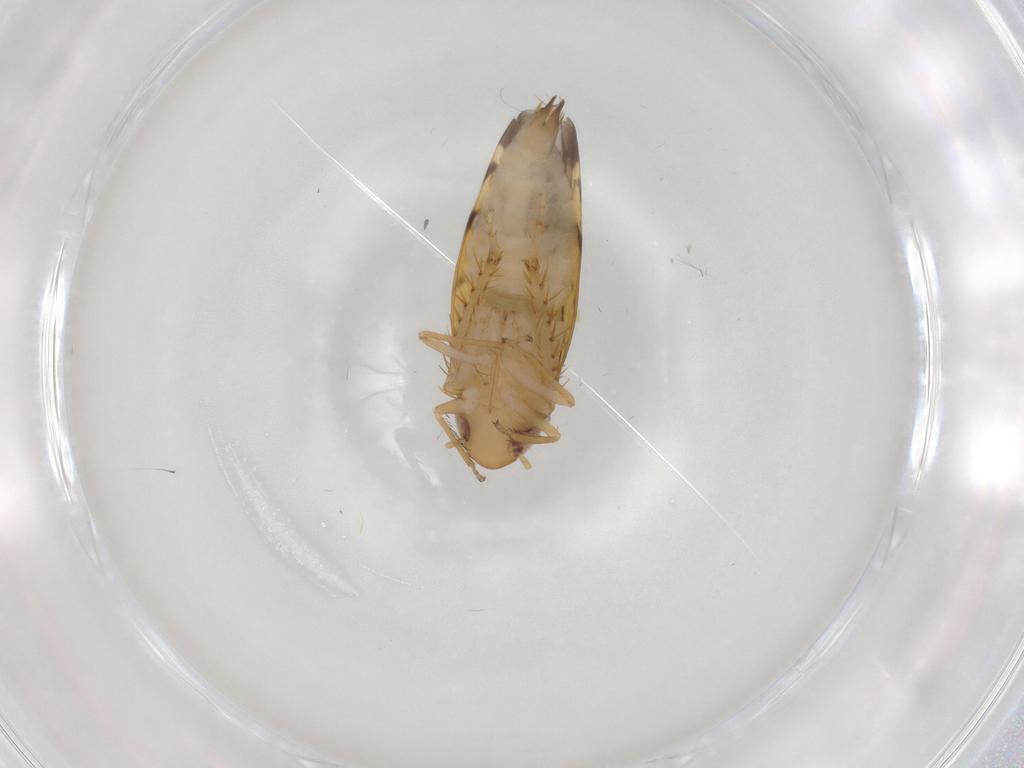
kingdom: Animalia
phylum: Arthropoda
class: Insecta
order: Hemiptera
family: Cicadellidae
